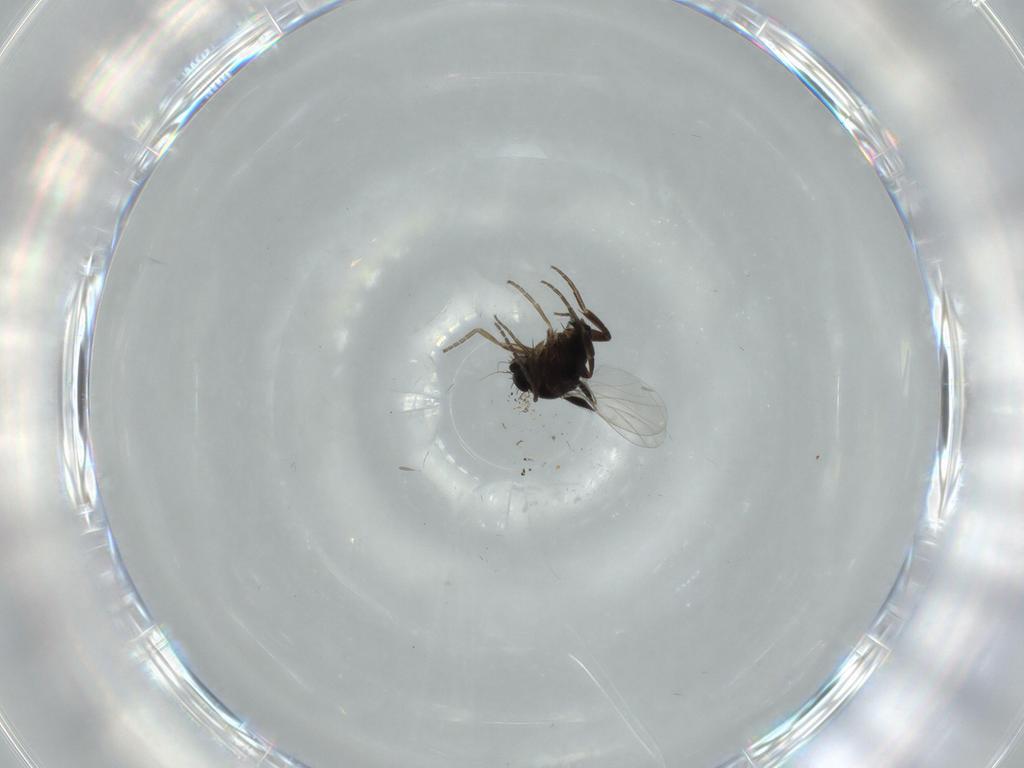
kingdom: Animalia
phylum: Arthropoda
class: Insecta
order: Diptera
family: Phoridae
